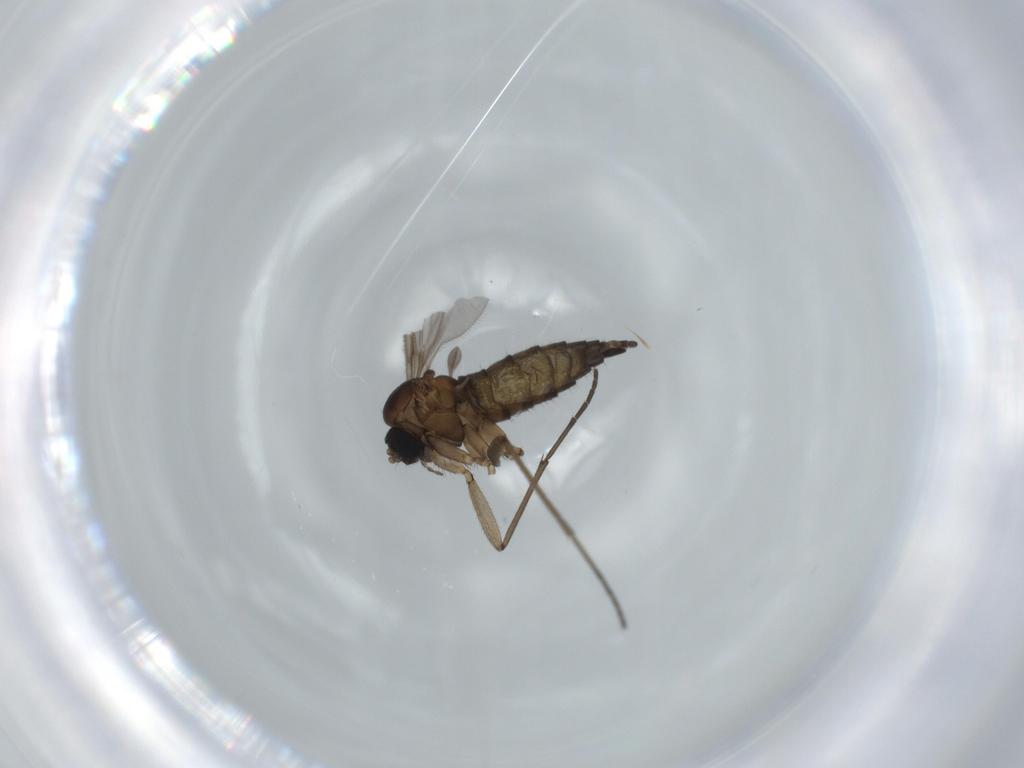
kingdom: Animalia
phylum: Arthropoda
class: Insecta
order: Diptera
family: Sciaridae
